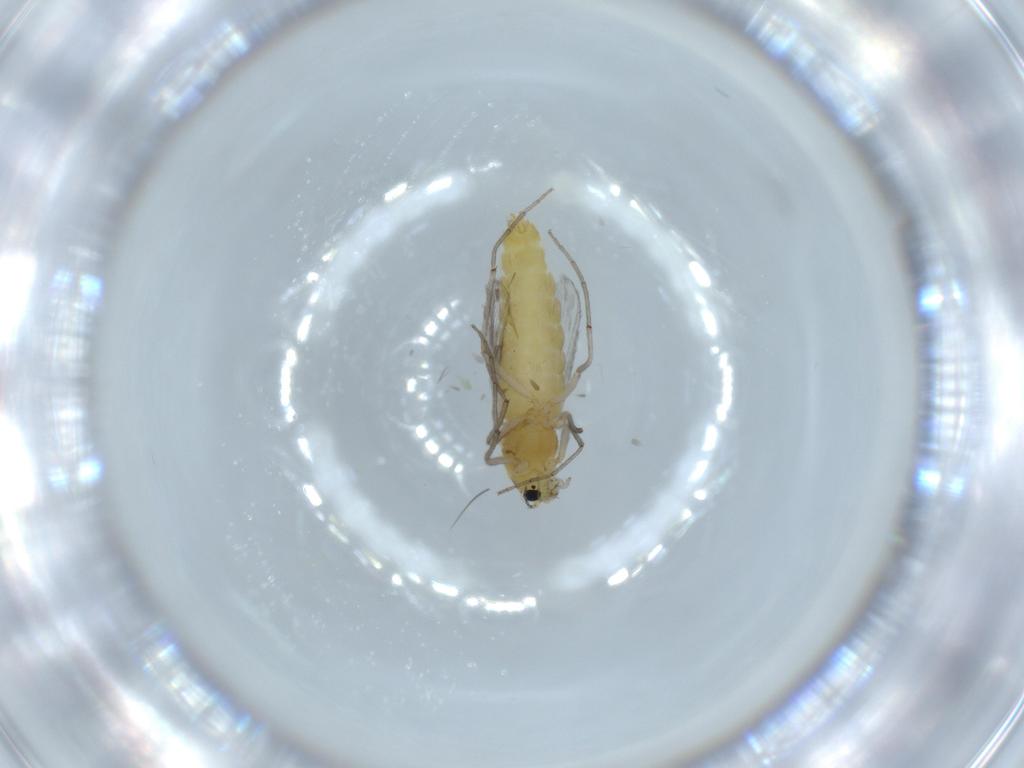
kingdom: Animalia
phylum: Arthropoda
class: Insecta
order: Diptera
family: Chironomidae
